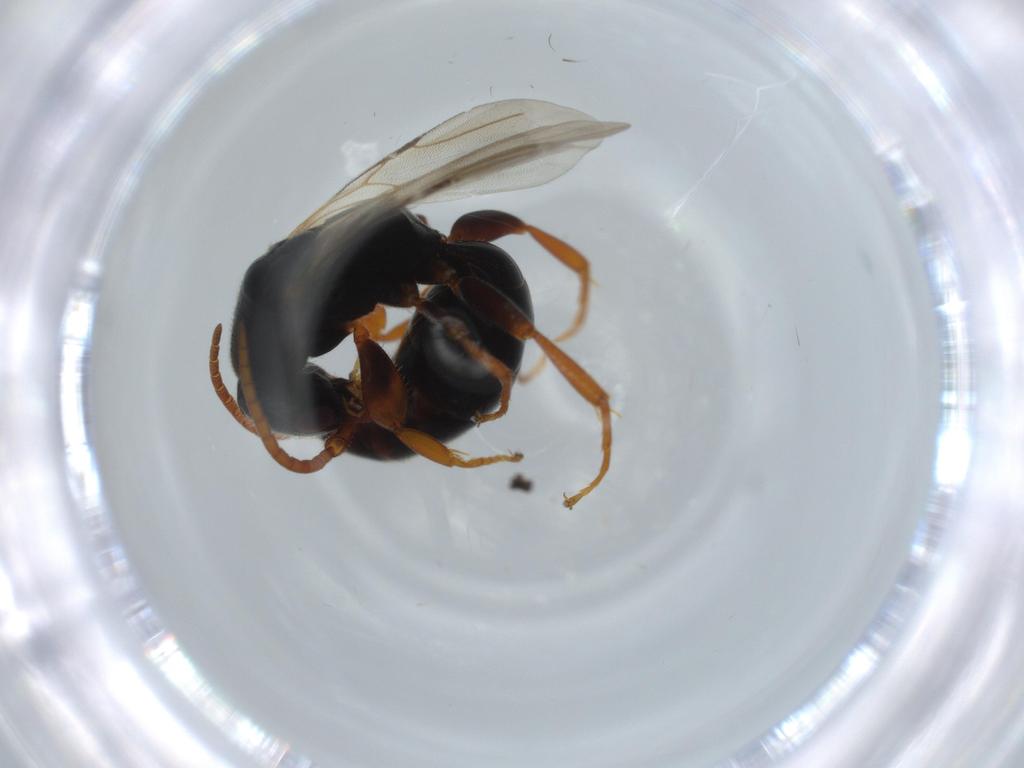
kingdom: Animalia
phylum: Arthropoda
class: Insecta
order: Hymenoptera
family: Bethylidae
